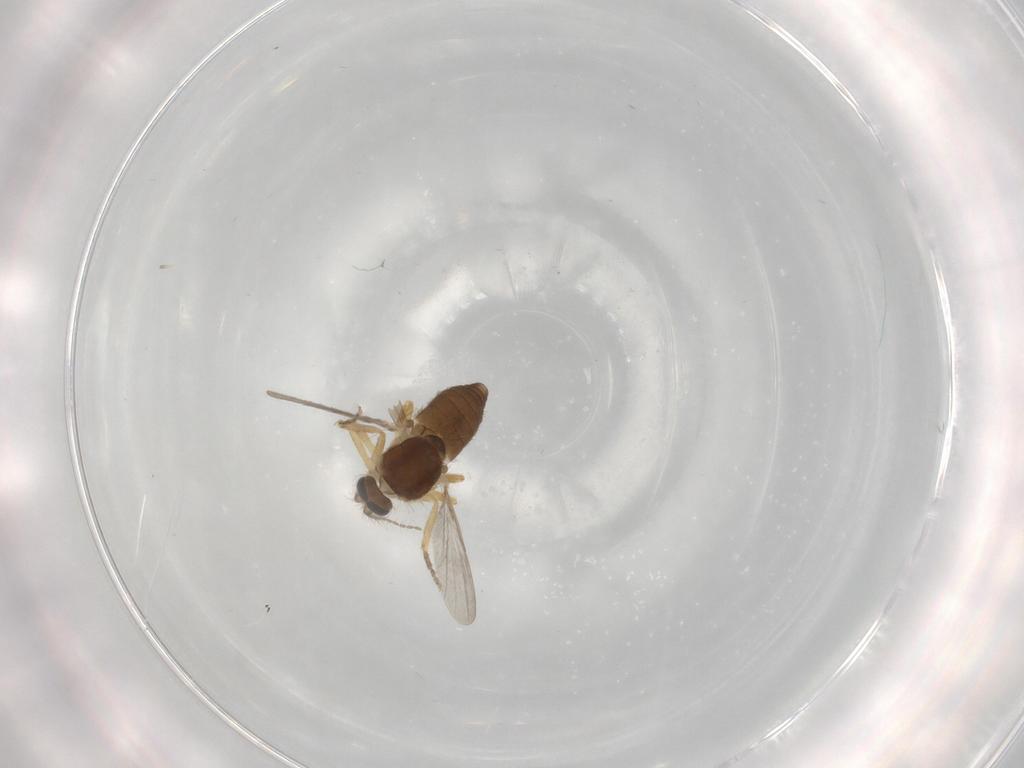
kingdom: Animalia
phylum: Arthropoda
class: Insecta
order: Diptera
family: Ceratopogonidae
